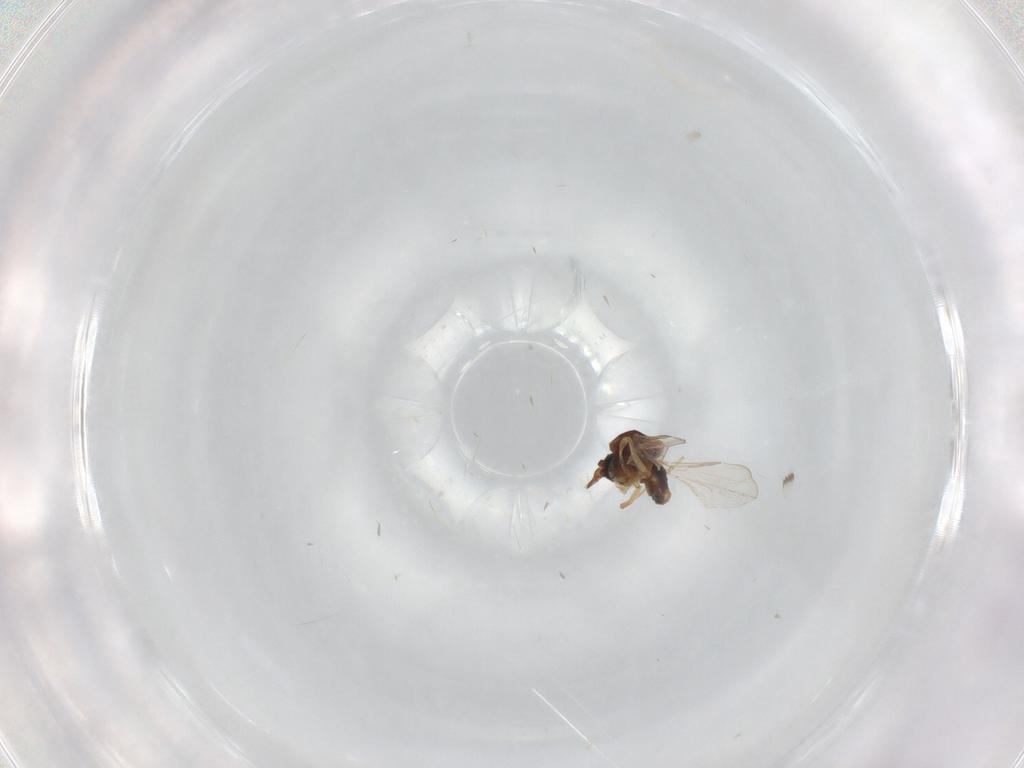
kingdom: Animalia
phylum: Arthropoda
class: Insecta
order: Diptera
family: Ceratopogonidae
